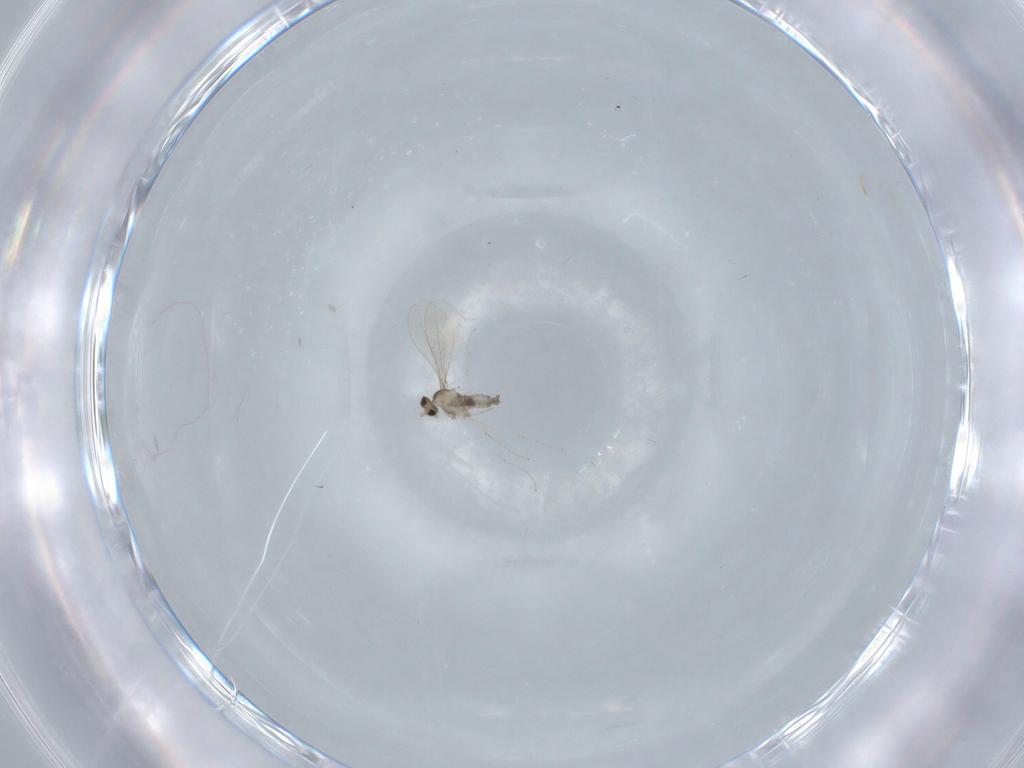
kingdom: Animalia
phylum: Arthropoda
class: Insecta
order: Diptera
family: Cecidomyiidae
